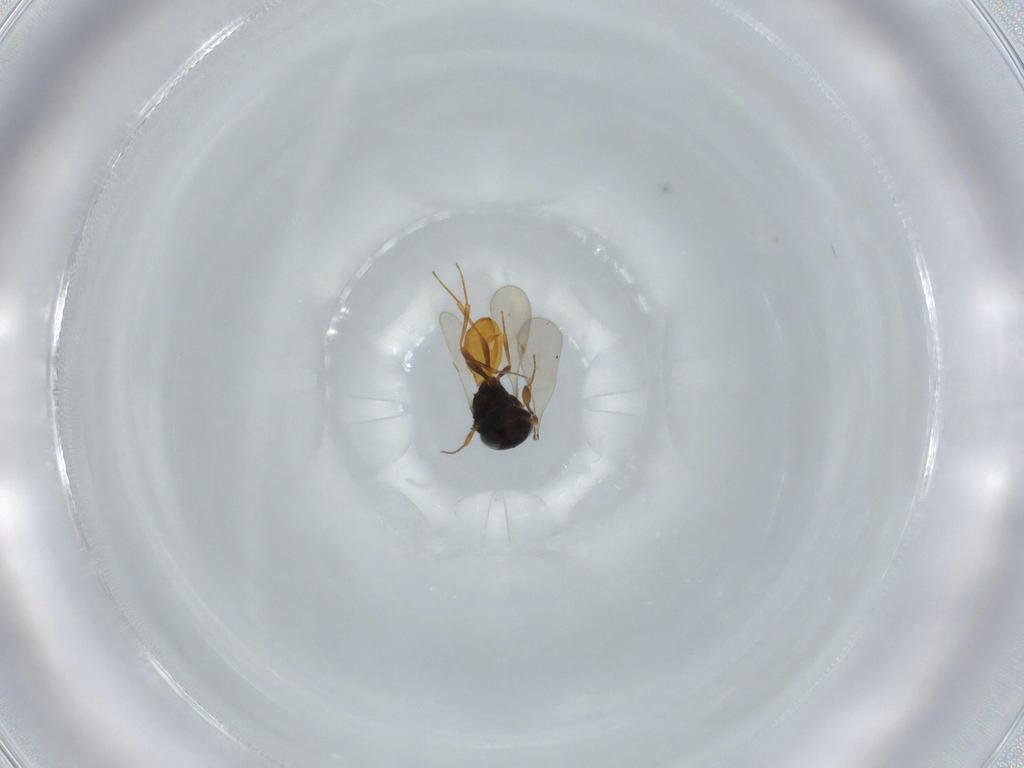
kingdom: Animalia
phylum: Arthropoda
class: Insecta
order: Hymenoptera
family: Scelionidae
